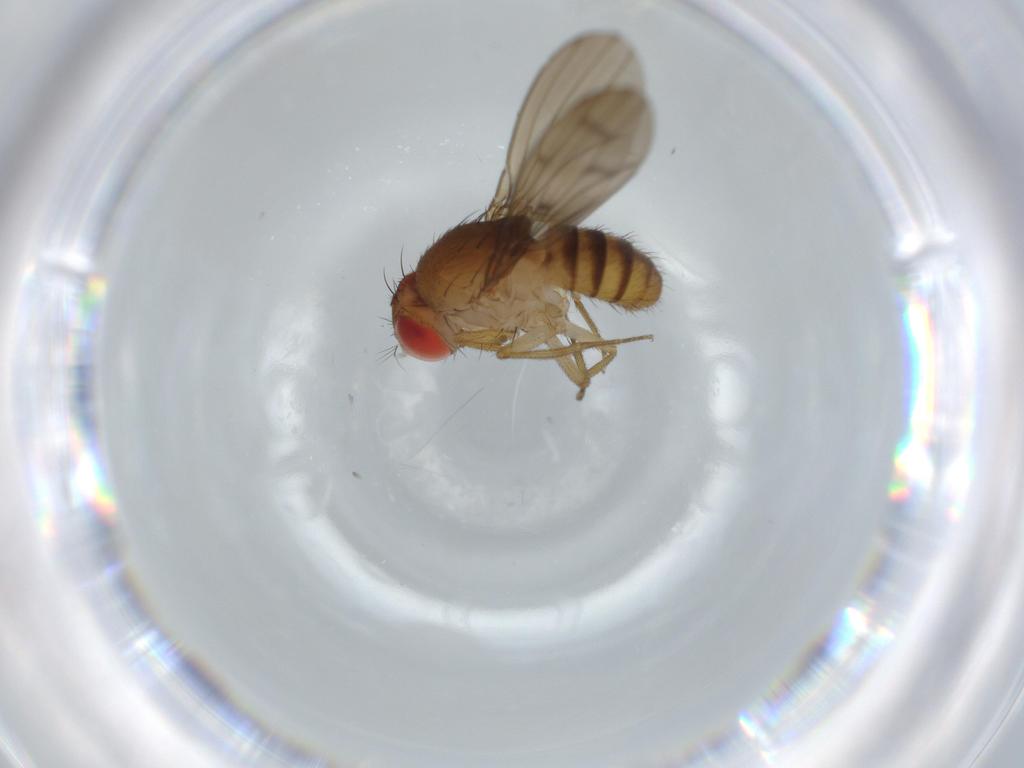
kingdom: Animalia
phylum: Arthropoda
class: Insecta
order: Diptera
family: Drosophilidae
